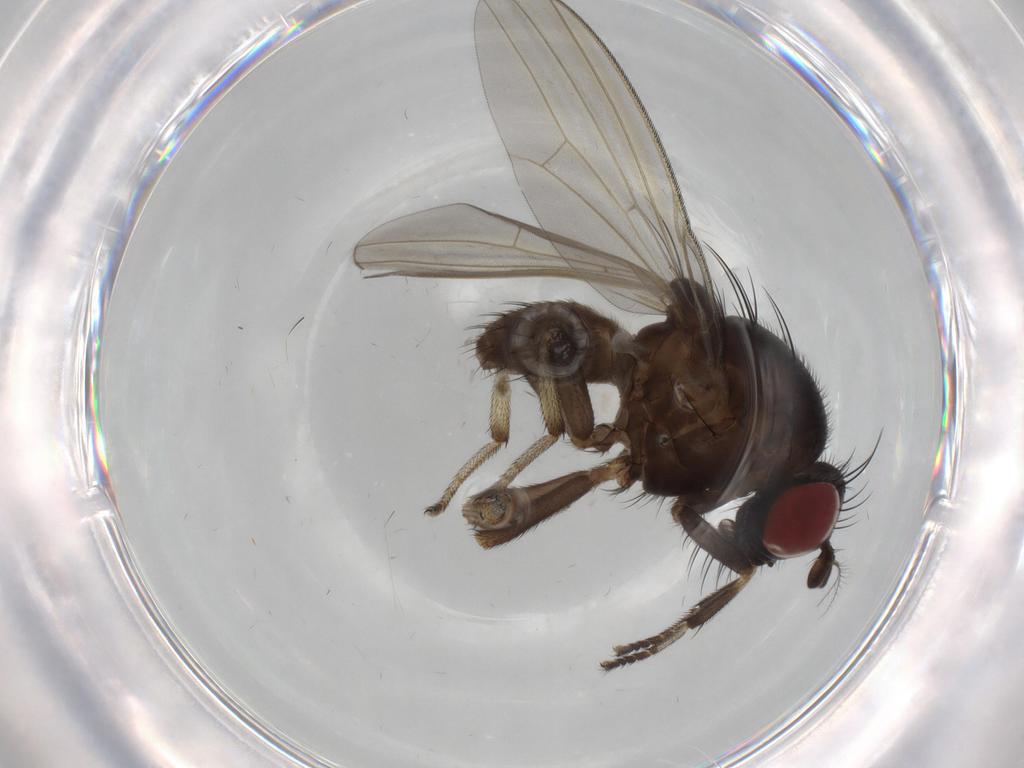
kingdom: Animalia
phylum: Arthropoda
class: Insecta
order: Diptera
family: Phoridae
